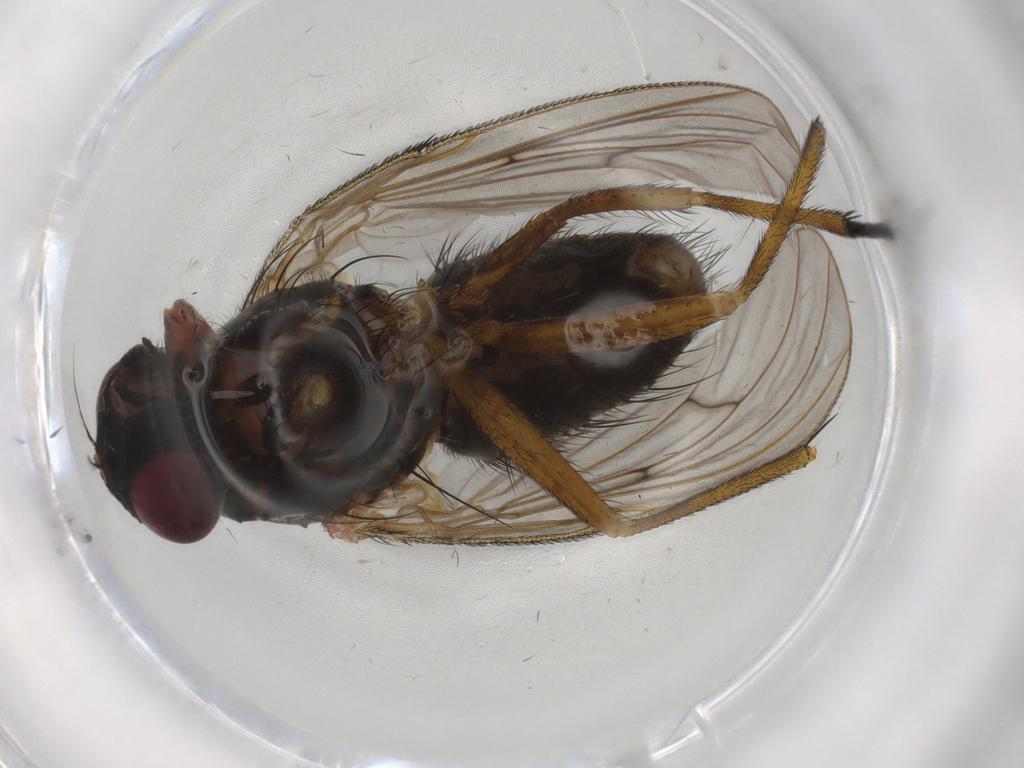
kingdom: Animalia
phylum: Arthropoda
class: Insecta
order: Diptera
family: Muscidae
